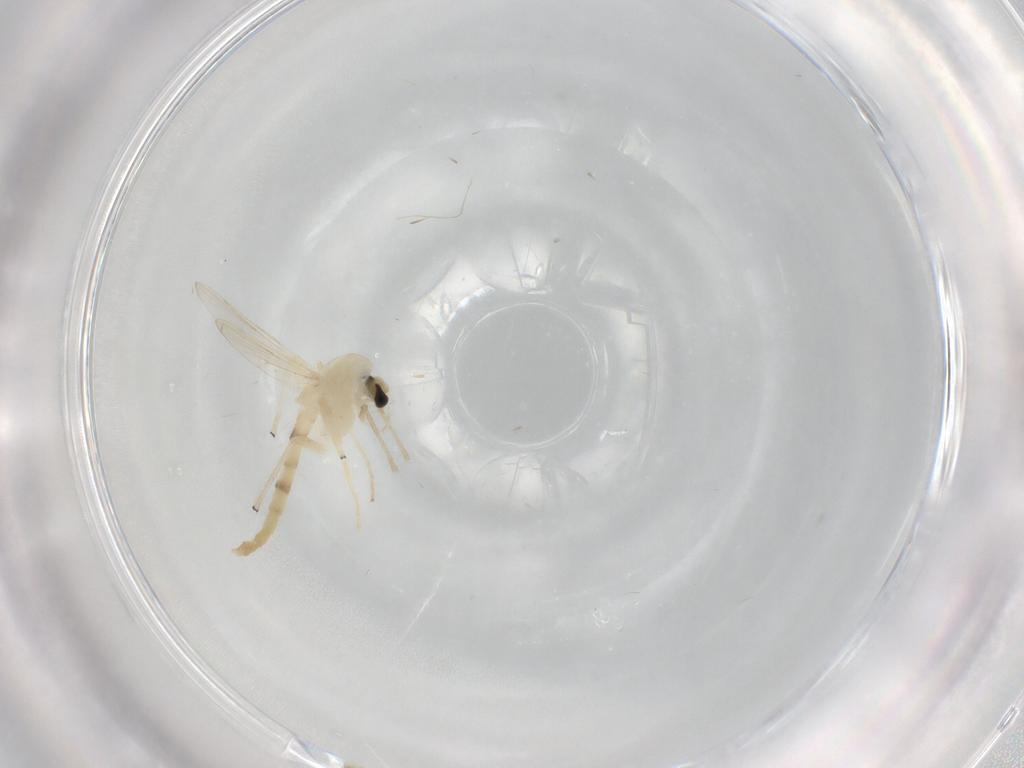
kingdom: Animalia
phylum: Arthropoda
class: Insecta
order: Diptera
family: Chironomidae
